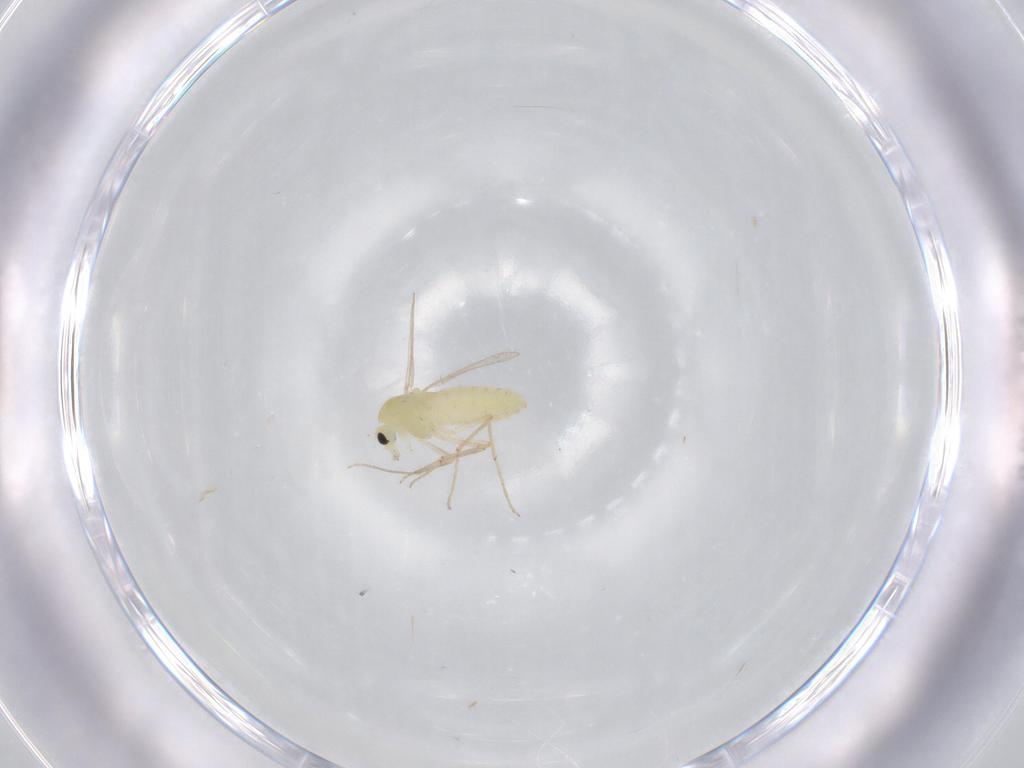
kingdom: Animalia
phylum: Arthropoda
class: Insecta
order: Diptera
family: Chironomidae
